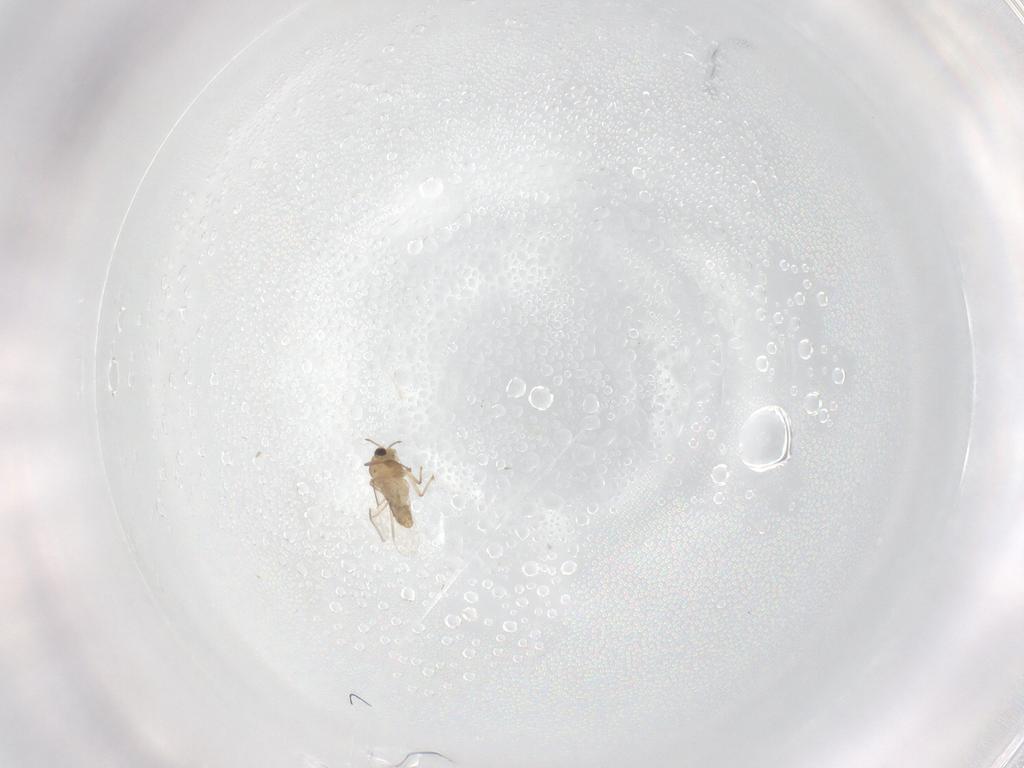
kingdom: Animalia
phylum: Arthropoda
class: Insecta
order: Diptera
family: Chironomidae
